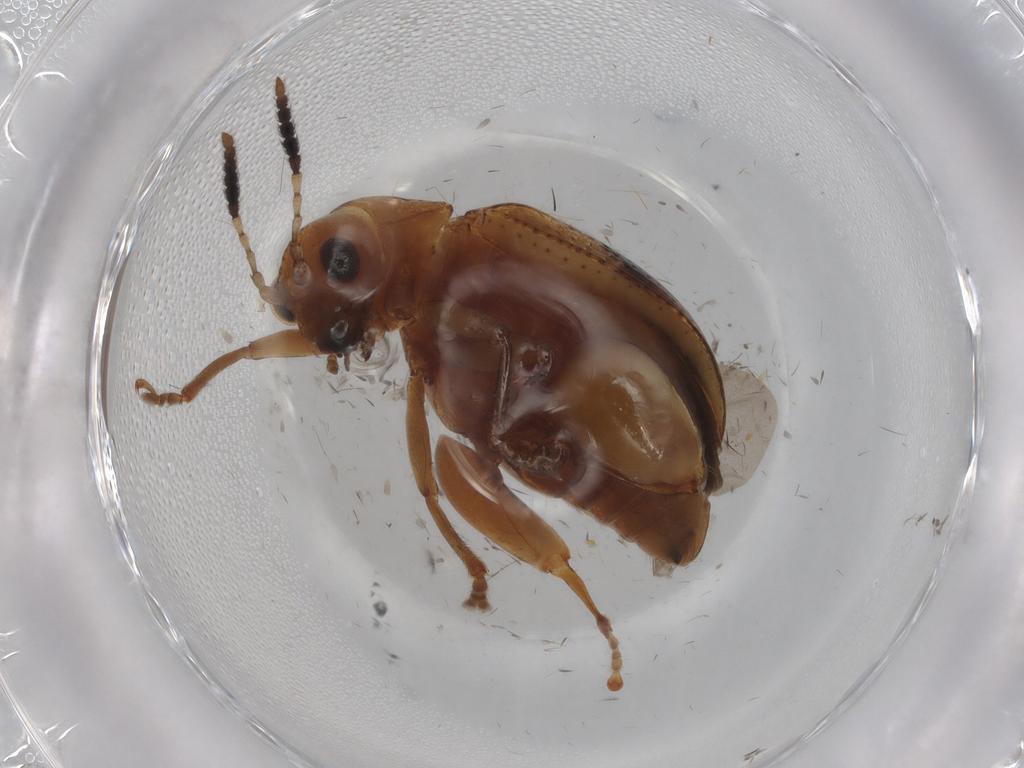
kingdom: Animalia
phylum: Arthropoda
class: Insecta
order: Coleoptera
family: Chrysomelidae
